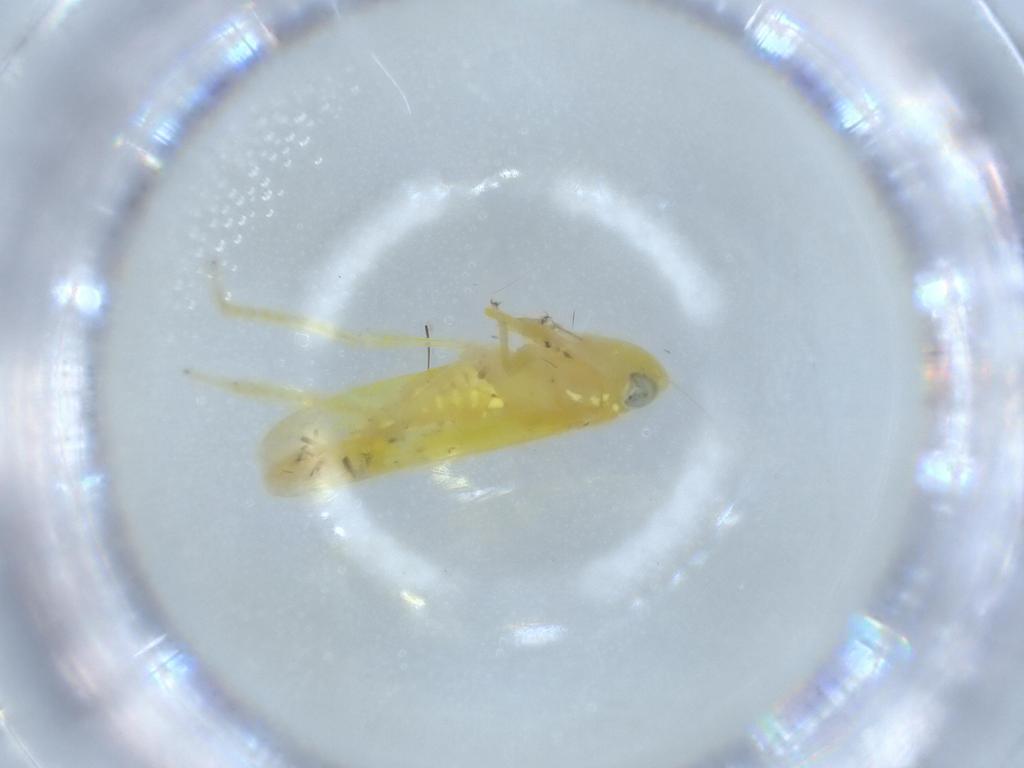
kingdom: Animalia
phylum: Arthropoda
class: Insecta
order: Hemiptera
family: Cicadellidae
